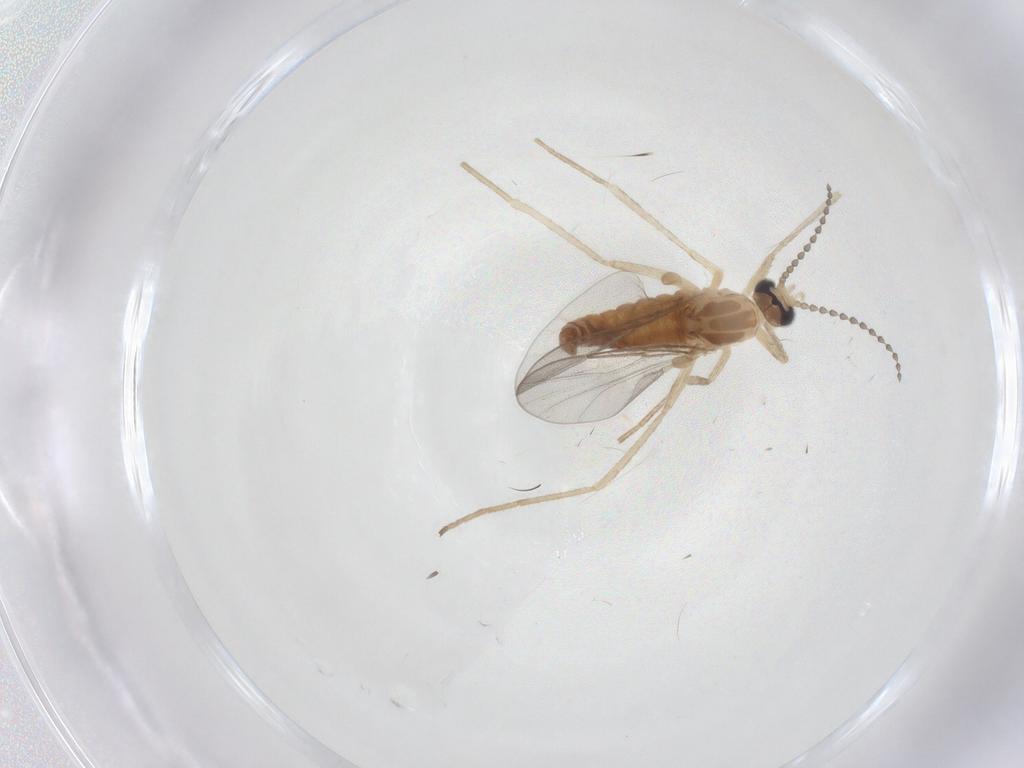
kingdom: Animalia
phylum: Arthropoda
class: Insecta
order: Diptera
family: Cecidomyiidae
